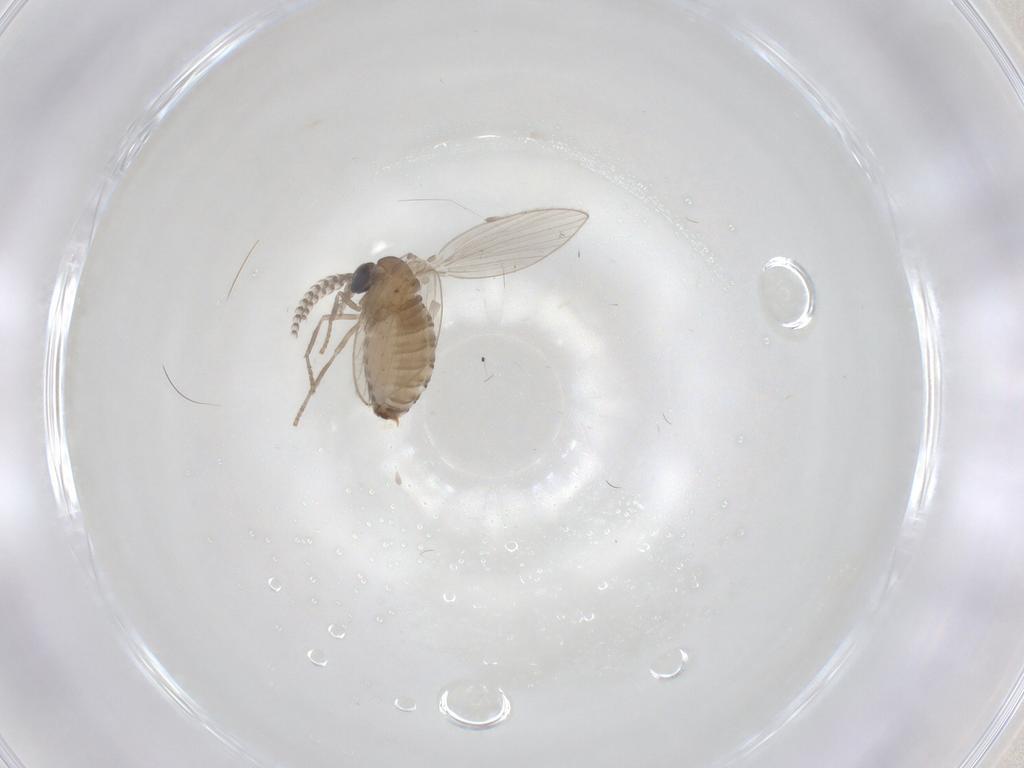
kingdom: Animalia
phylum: Arthropoda
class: Insecta
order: Diptera
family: Psychodidae
